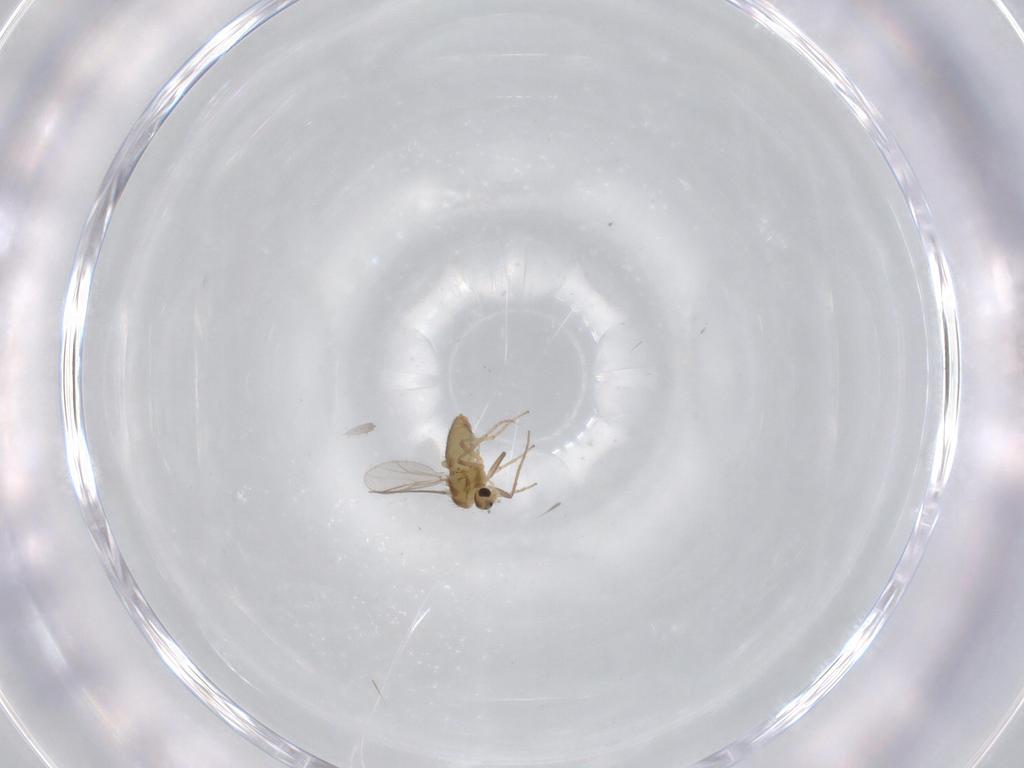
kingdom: Animalia
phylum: Arthropoda
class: Insecta
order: Diptera
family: Chironomidae
